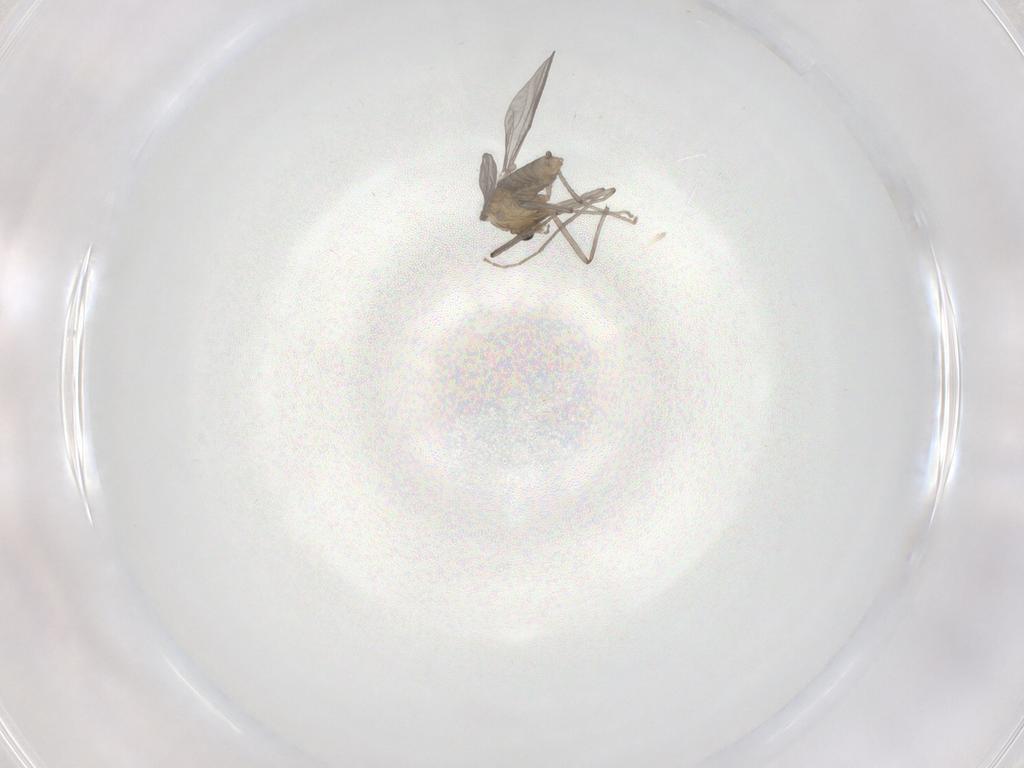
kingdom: Animalia
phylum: Arthropoda
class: Insecta
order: Diptera
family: Chironomidae
